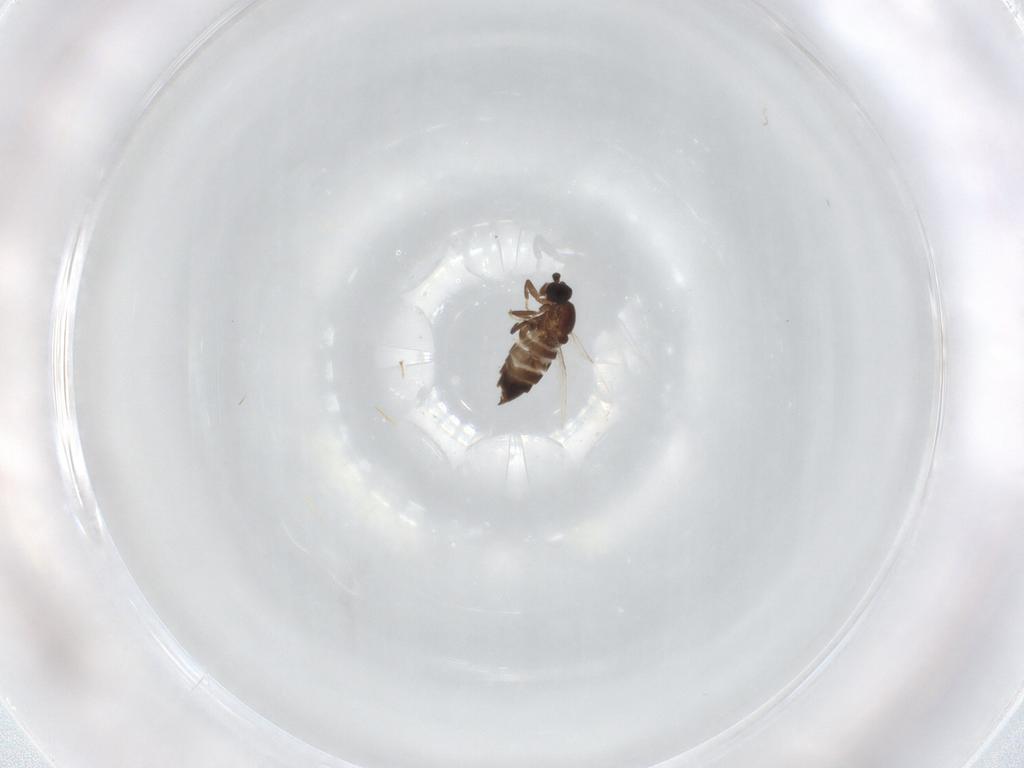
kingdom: Animalia
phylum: Arthropoda
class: Insecta
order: Diptera
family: Scatopsidae
